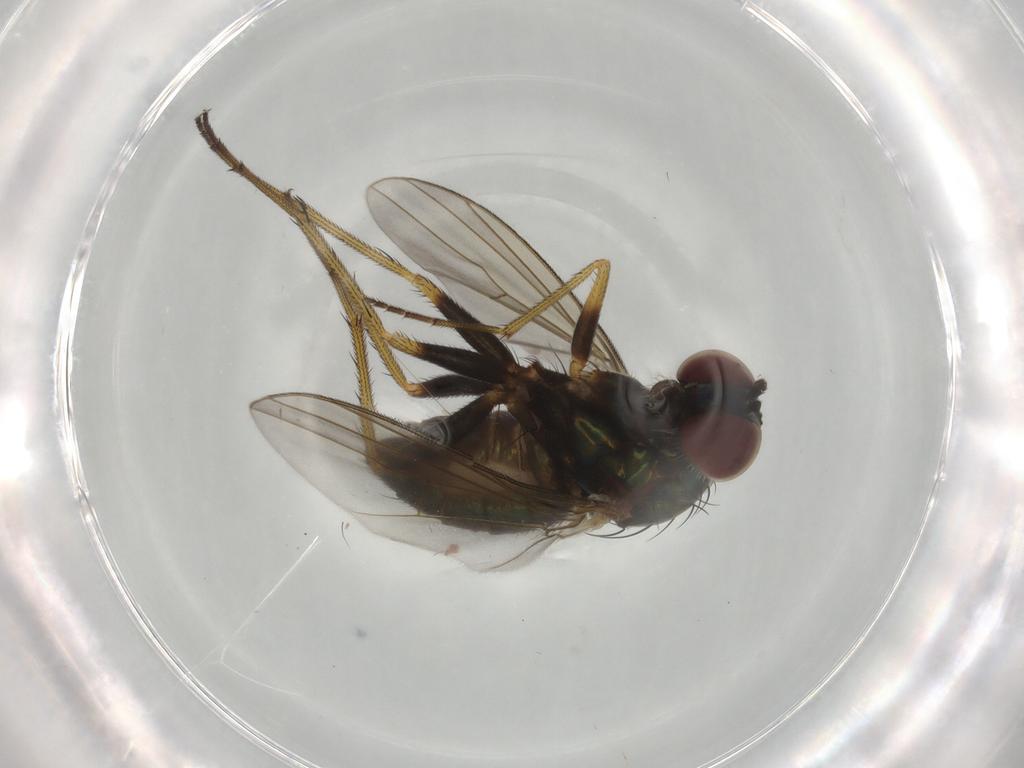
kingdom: Animalia
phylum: Arthropoda
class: Insecta
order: Diptera
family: Dolichopodidae
